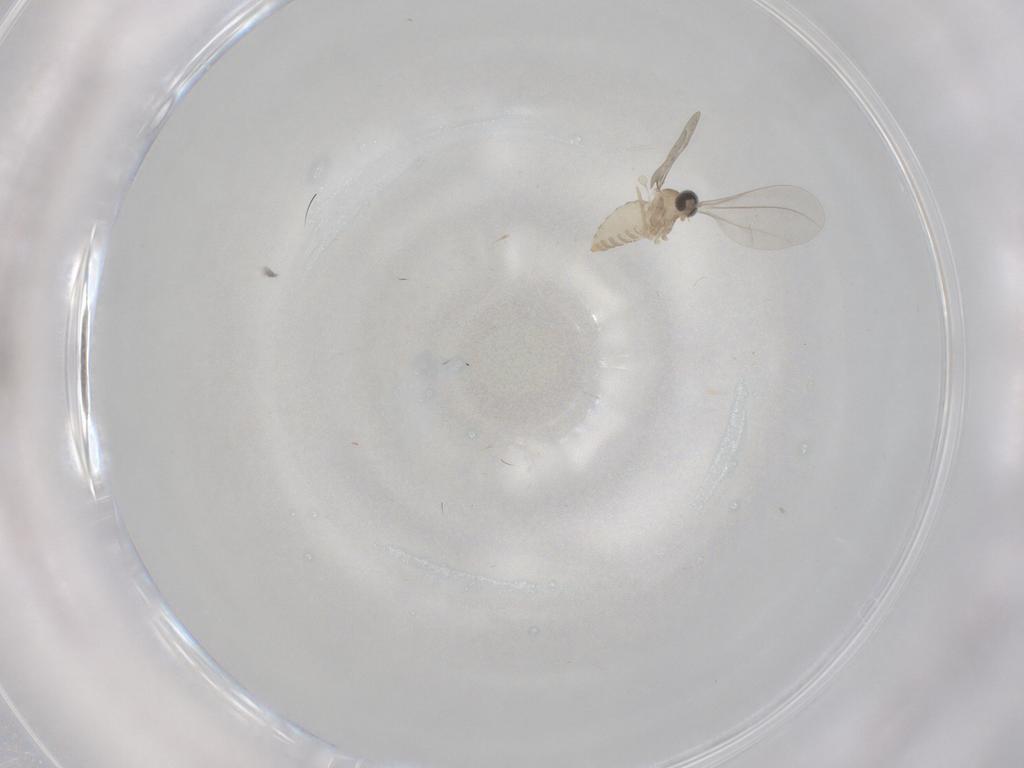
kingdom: Animalia
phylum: Arthropoda
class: Insecta
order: Diptera
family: Cecidomyiidae
